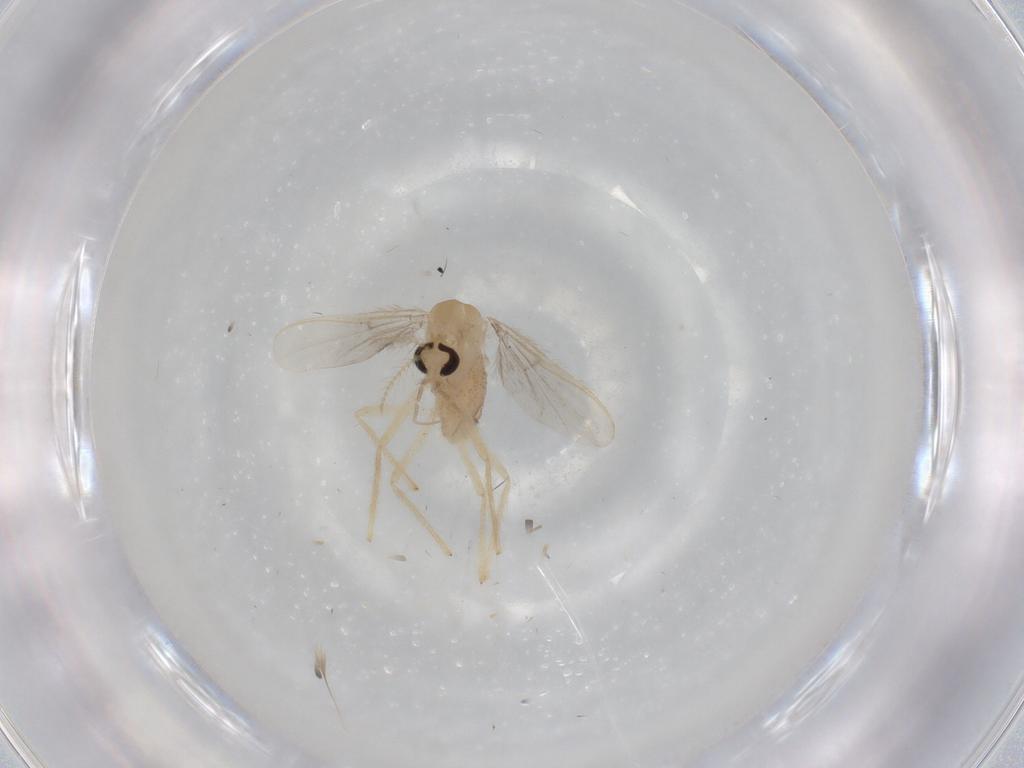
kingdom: Animalia
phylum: Arthropoda
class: Insecta
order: Diptera
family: Chironomidae
